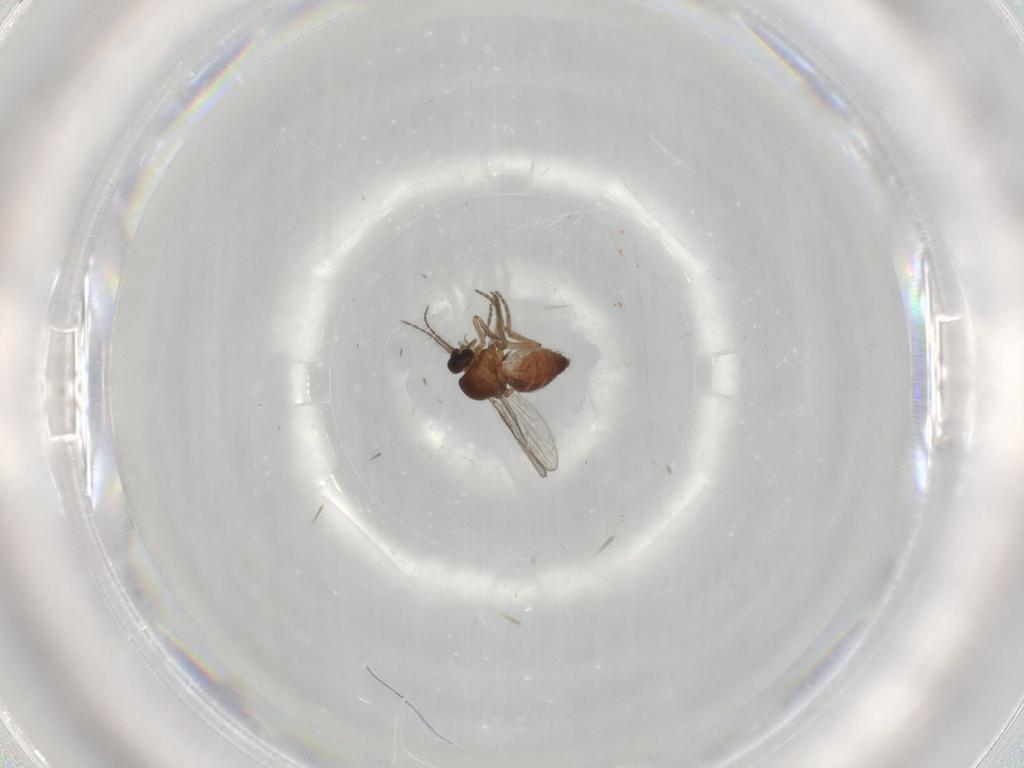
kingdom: Animalia
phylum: Arthropoda
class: Insecta
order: Diptera
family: Ceratopogonidae
